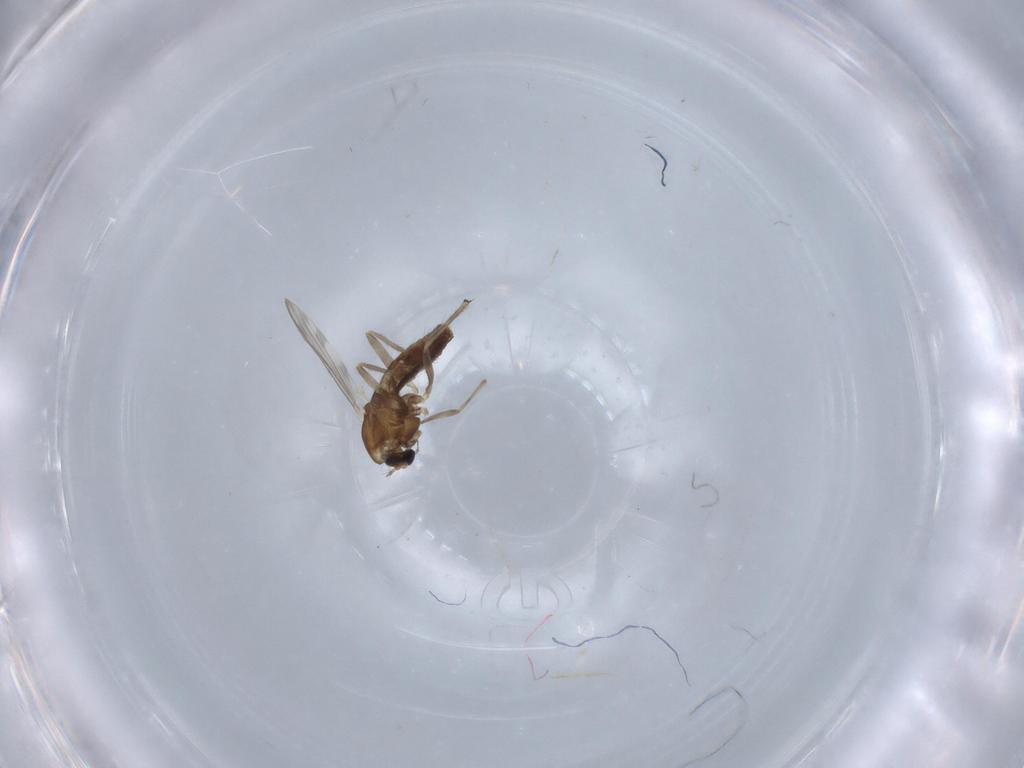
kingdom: Animalia
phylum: Arthropoda
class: Insecta
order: Diptera
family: Chironomidae
